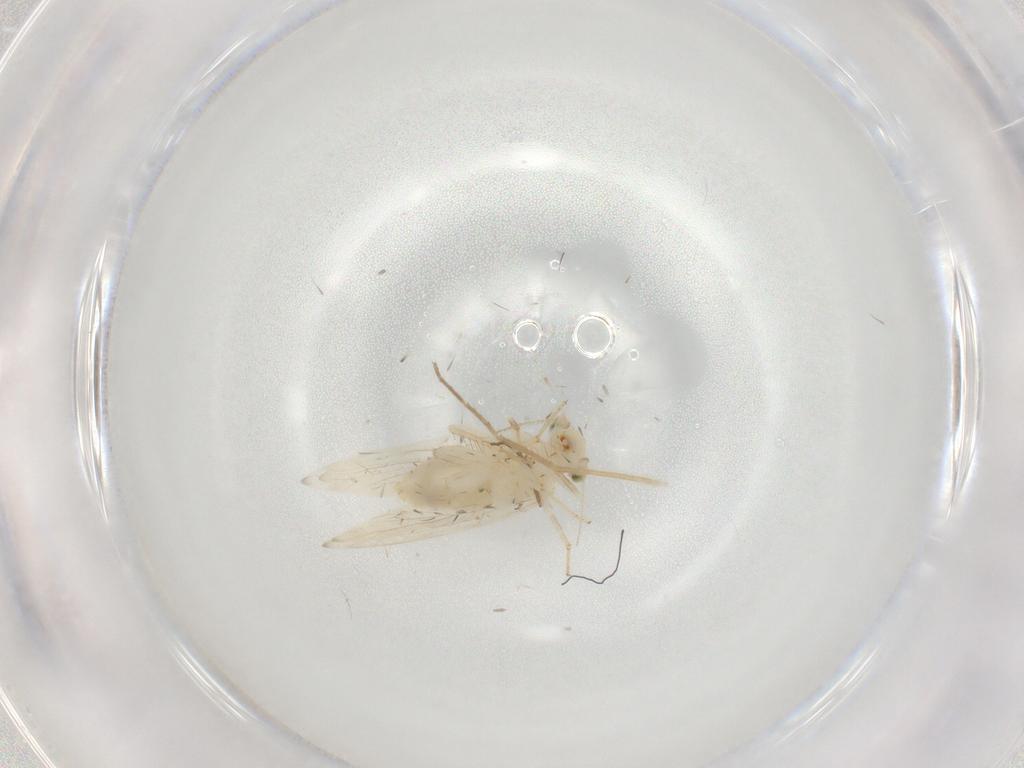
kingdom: Animalia
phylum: Arthropoda
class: Insecta
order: Psocodea
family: Lepidopsocidae
